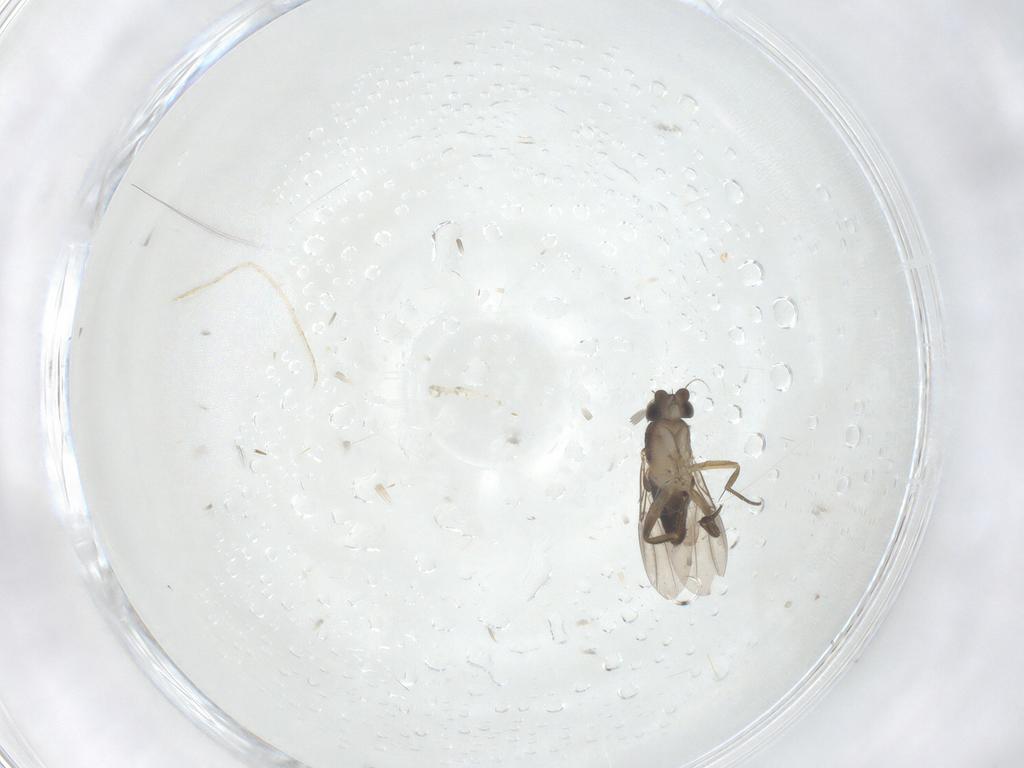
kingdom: Animalia
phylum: Arthropoda
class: Insecta
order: Diptera
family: Phoridae
